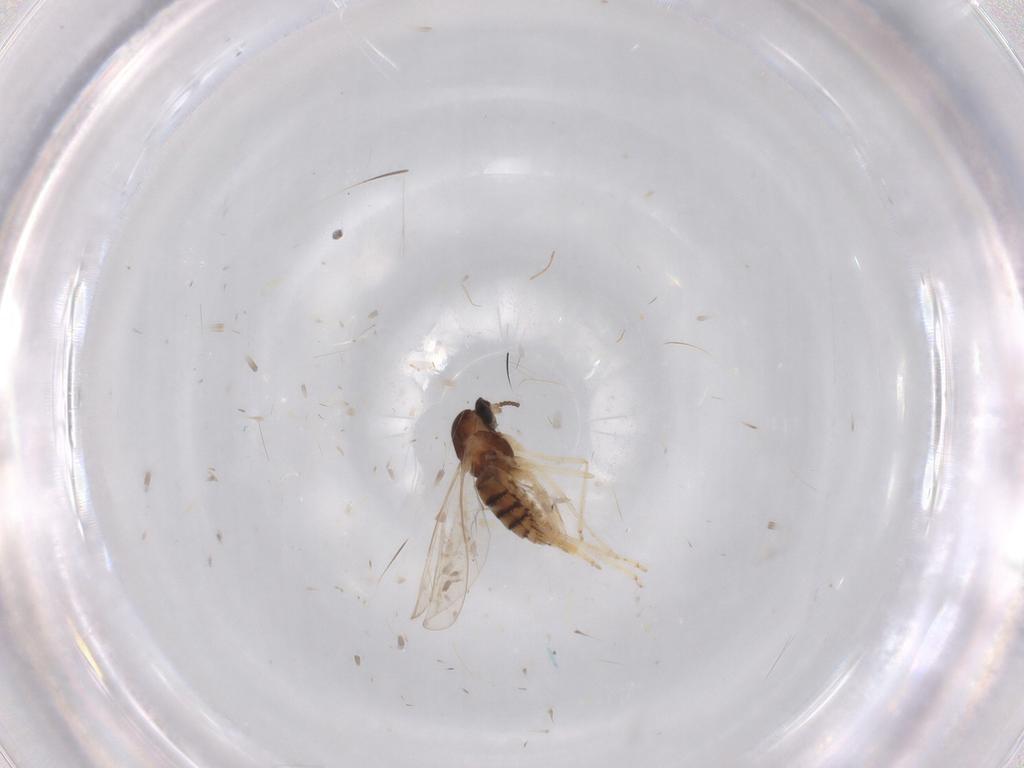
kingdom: Animalia
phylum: Arthropoda
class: Insecta
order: Diptera
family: Cecidomyiidae
